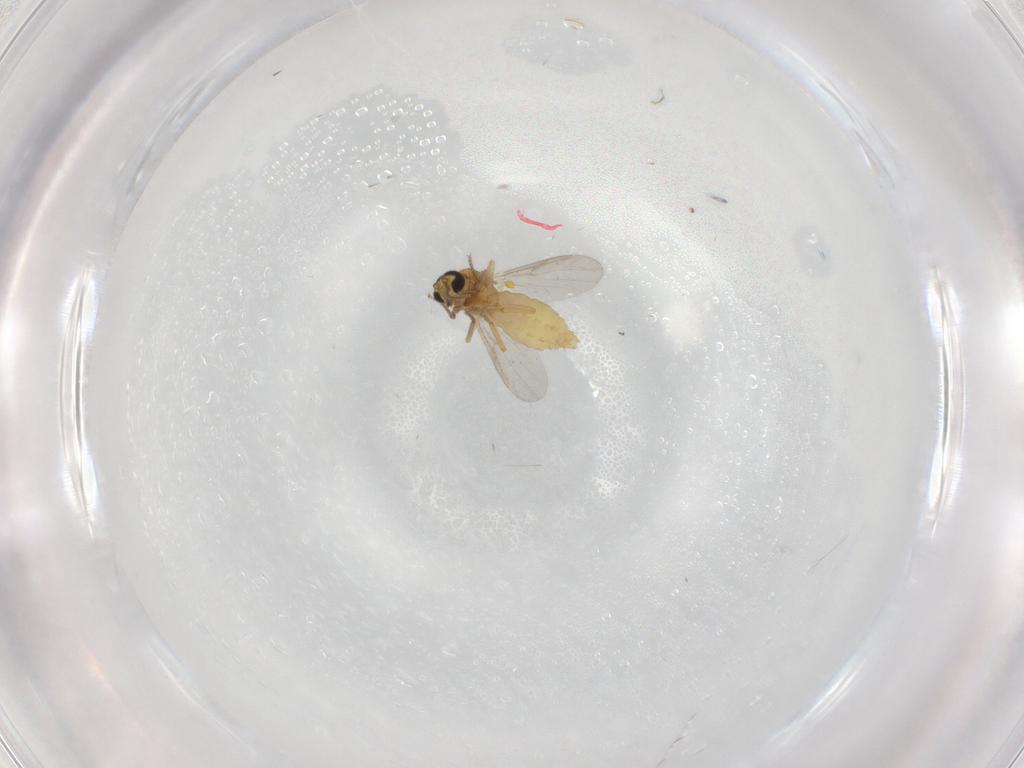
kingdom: Animalia
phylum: Arthropoda
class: Insecta
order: Diptera
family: Ceratopogonidae
